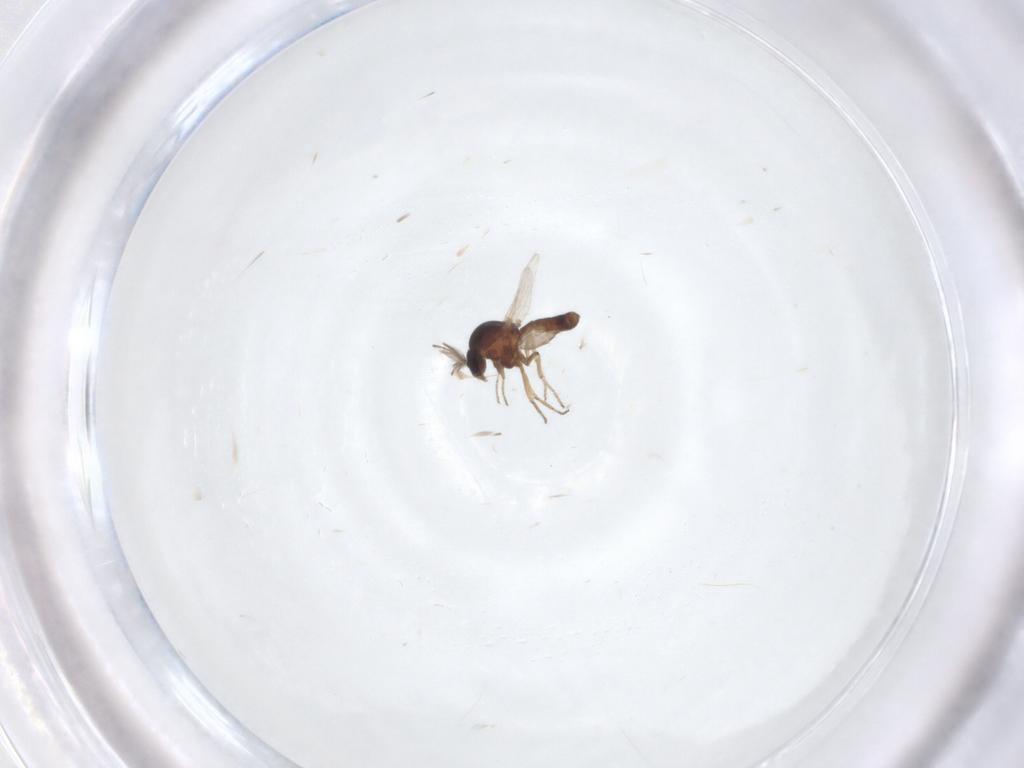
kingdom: Animalia
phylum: Arthropoda
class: Insecta
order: Diptera
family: Ceratopogonidae
